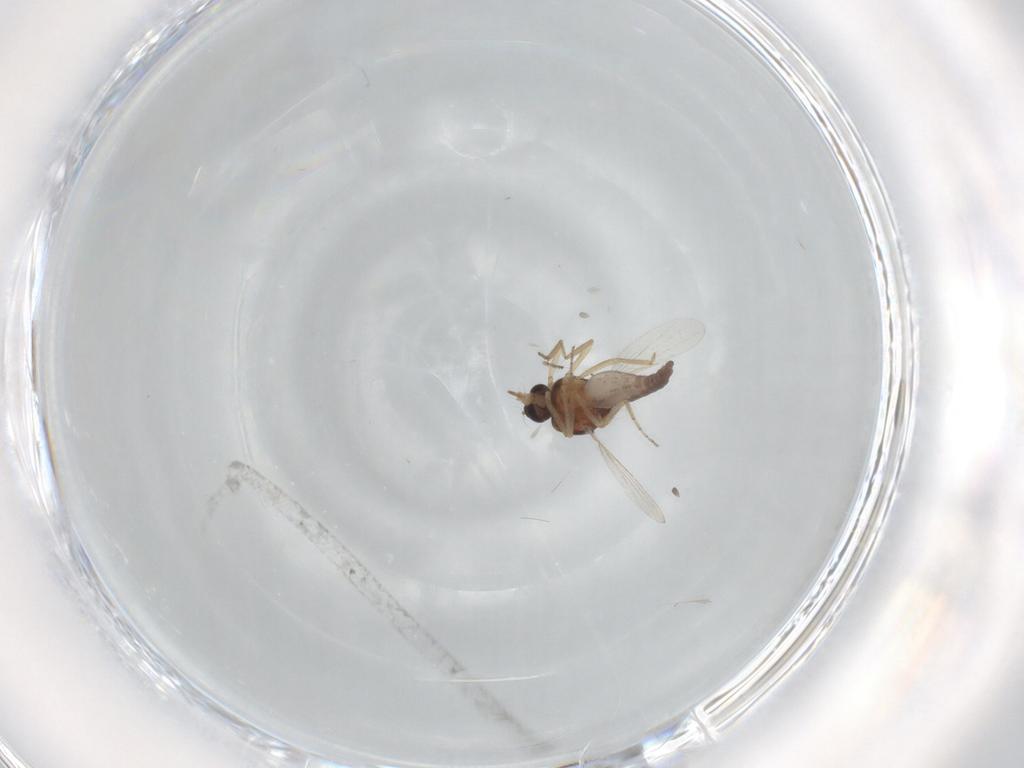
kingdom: Animalia
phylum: Arthropoda
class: Insecta
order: Diptera
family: Ceratopogonidae
